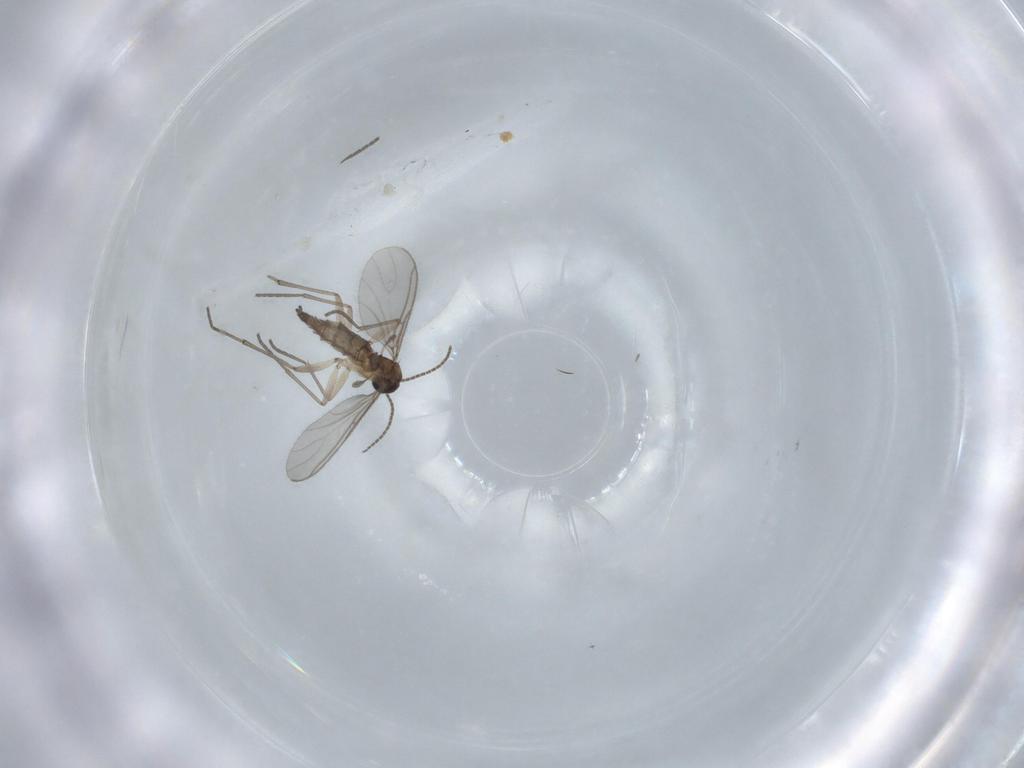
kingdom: Animalia
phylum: Arthropoda
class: Insecta
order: Diptera
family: Sciaridae
